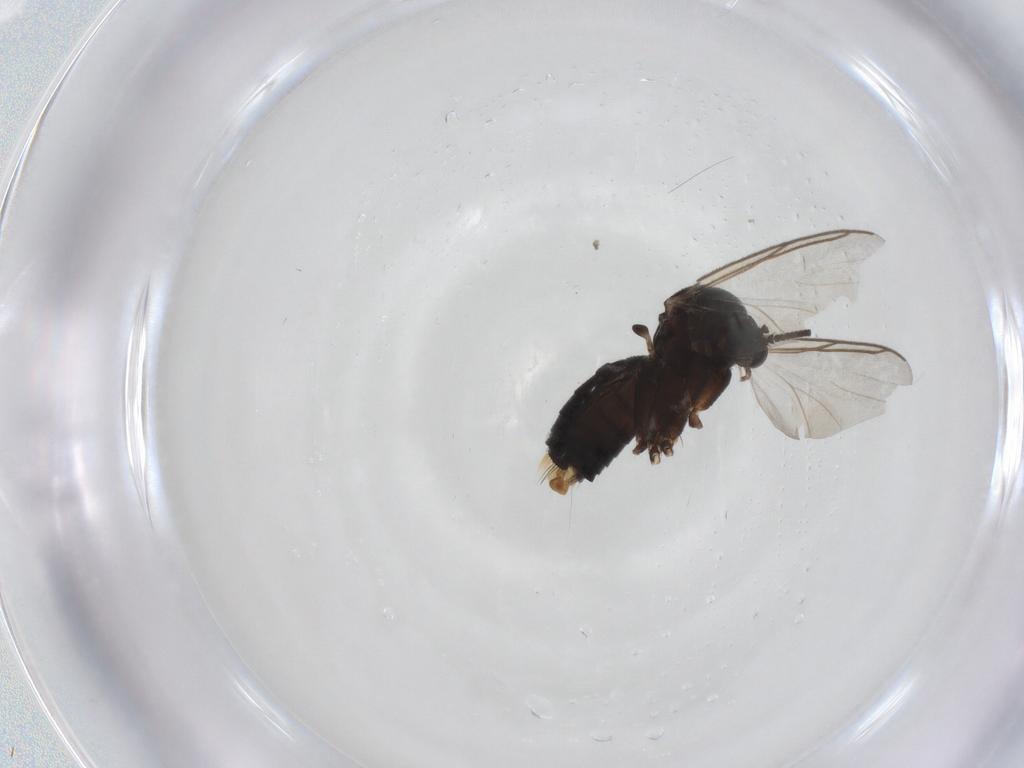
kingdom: Animalia
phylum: Arthropoda
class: Insecta
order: Diptera
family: Mycetophilidae
